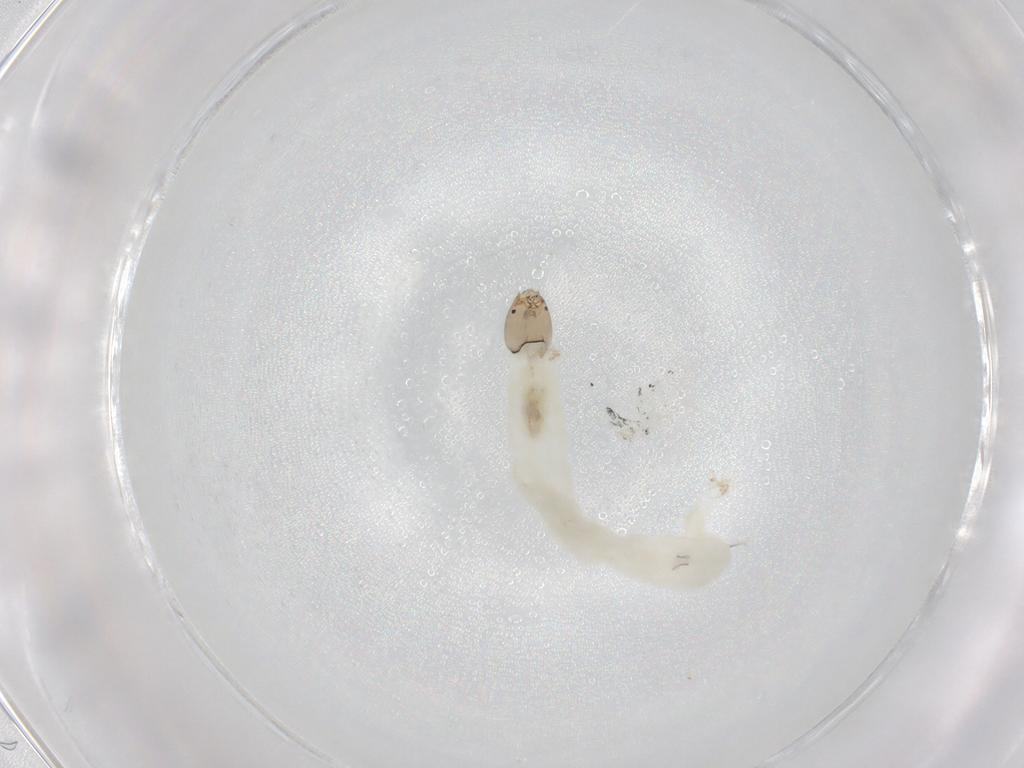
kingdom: Animalia
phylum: Arthropoda
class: Insecta
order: Diptera
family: Chironomidae
